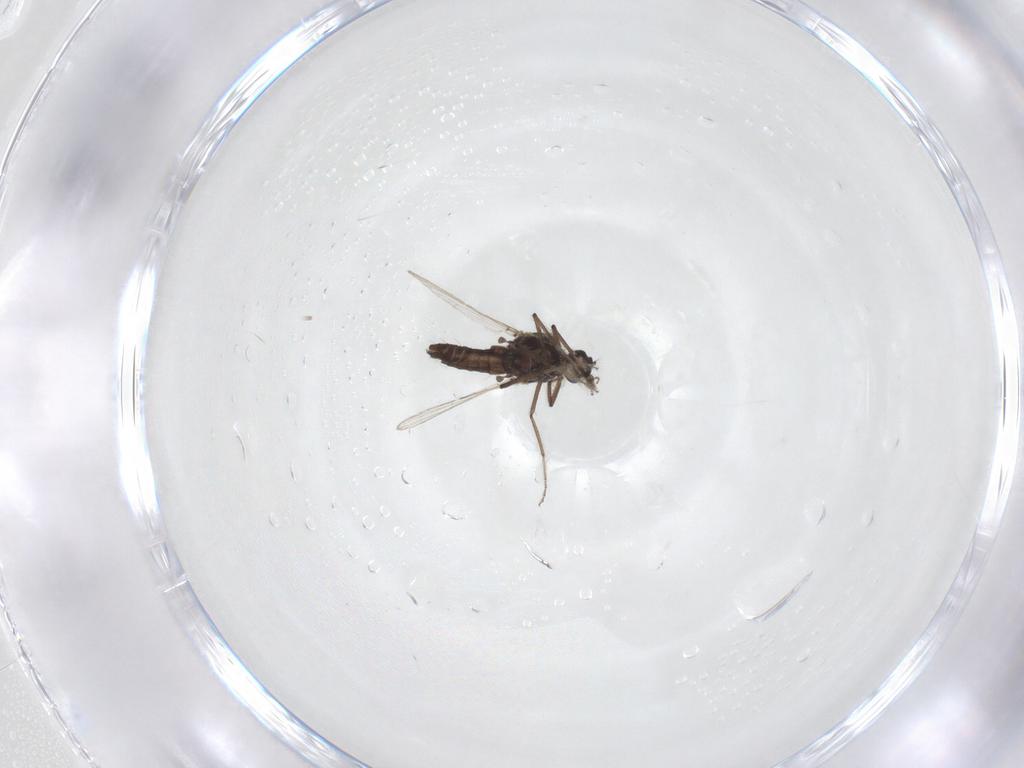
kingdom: Animalia
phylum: Arthropoda
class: Insecta
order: Diptera
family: Ceratopogonidae
